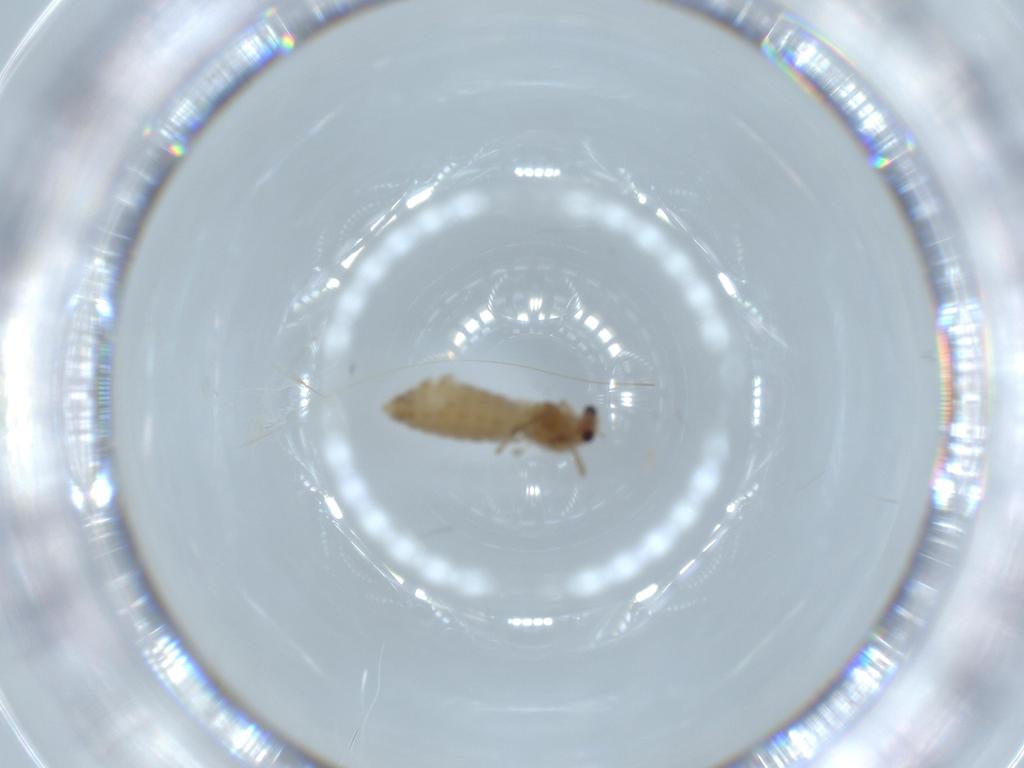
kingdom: Animalia
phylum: Arthropoda
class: Insecta
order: Diptera
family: Chironomidae
